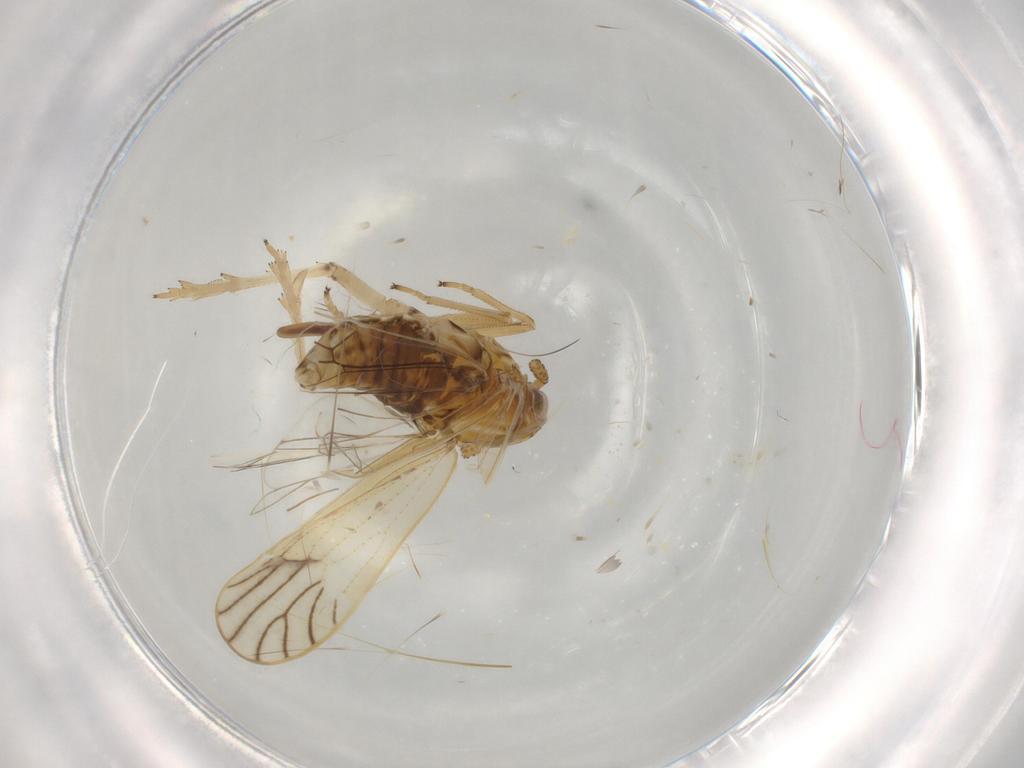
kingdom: Animalia
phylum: Arthropoda
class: Insecta
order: Hemiptera
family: Delphacidae
